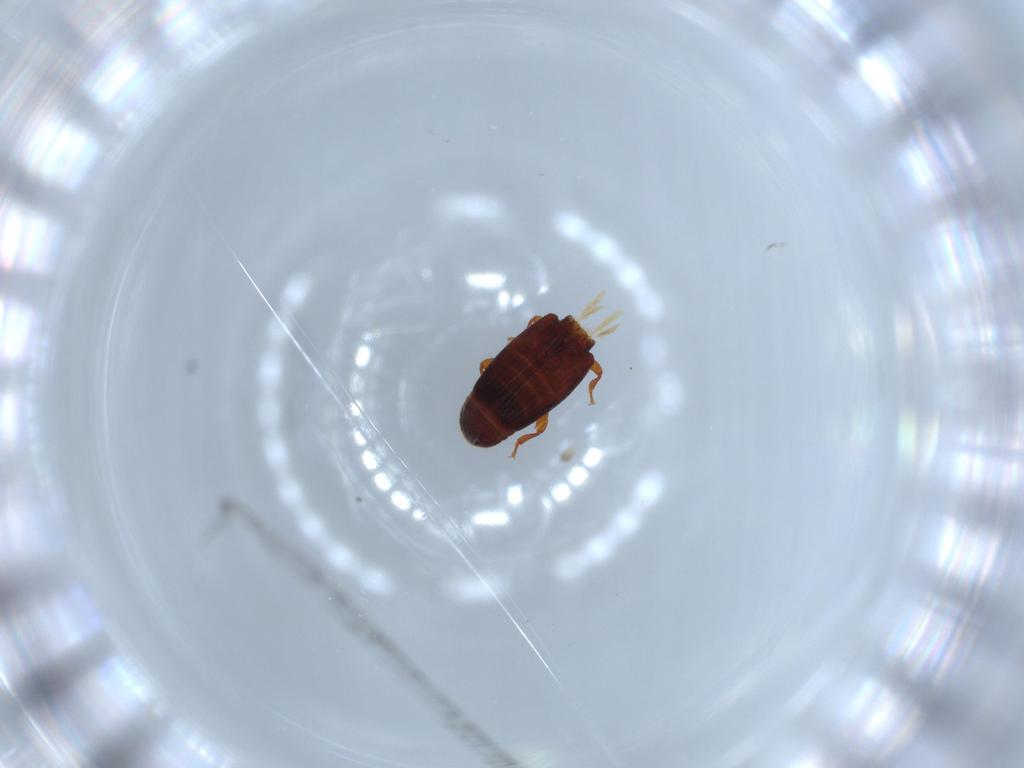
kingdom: Animalia
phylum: Arthropoda
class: Insecta
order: Coleoptera
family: Monotomidae
